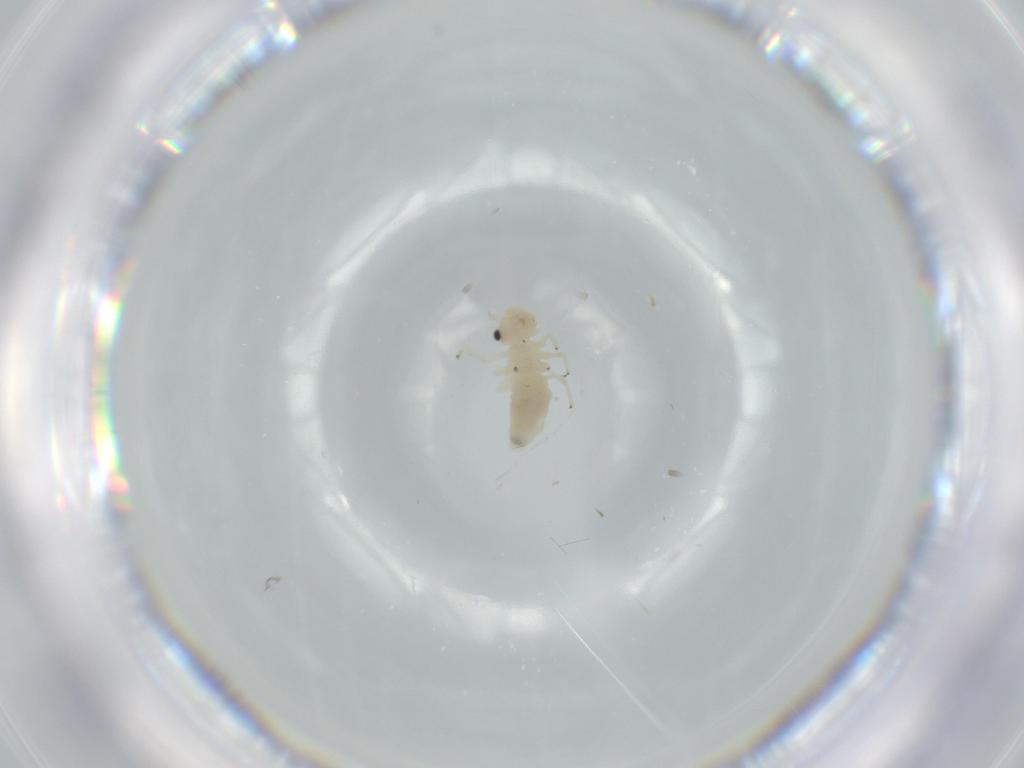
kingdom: Animalia
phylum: Arthropoda
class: Insecta
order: Psocodea
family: Caeciliusidae
